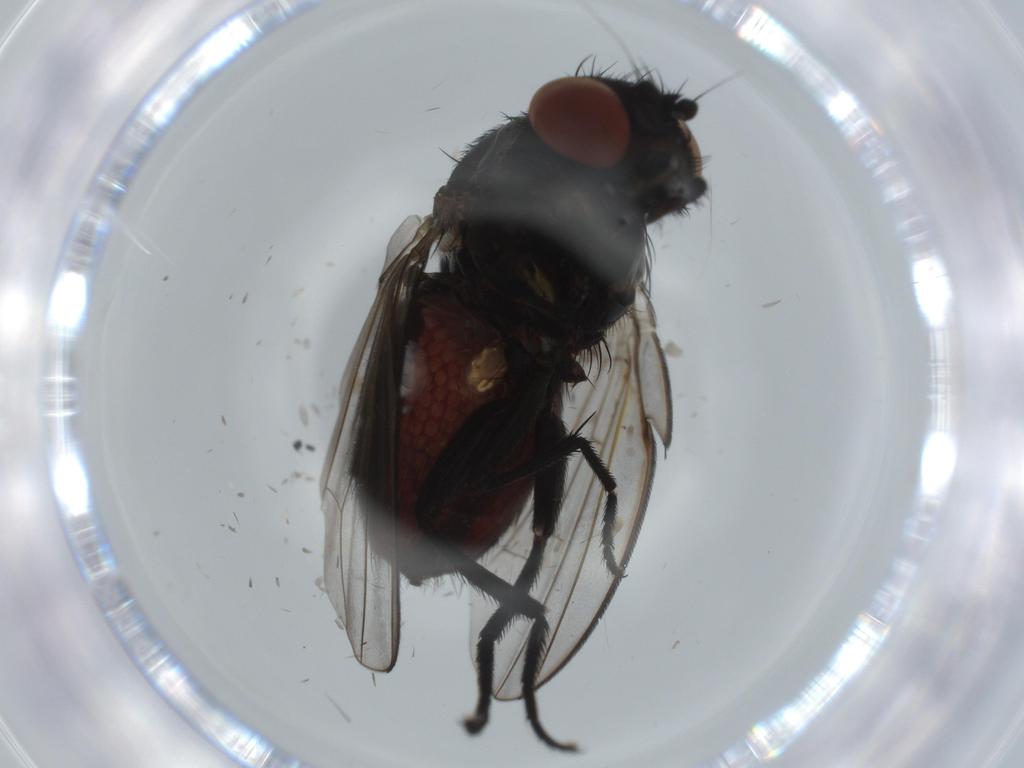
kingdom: Animalia
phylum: Arthropoda
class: Insecta
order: Diptera
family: Milichiidae
